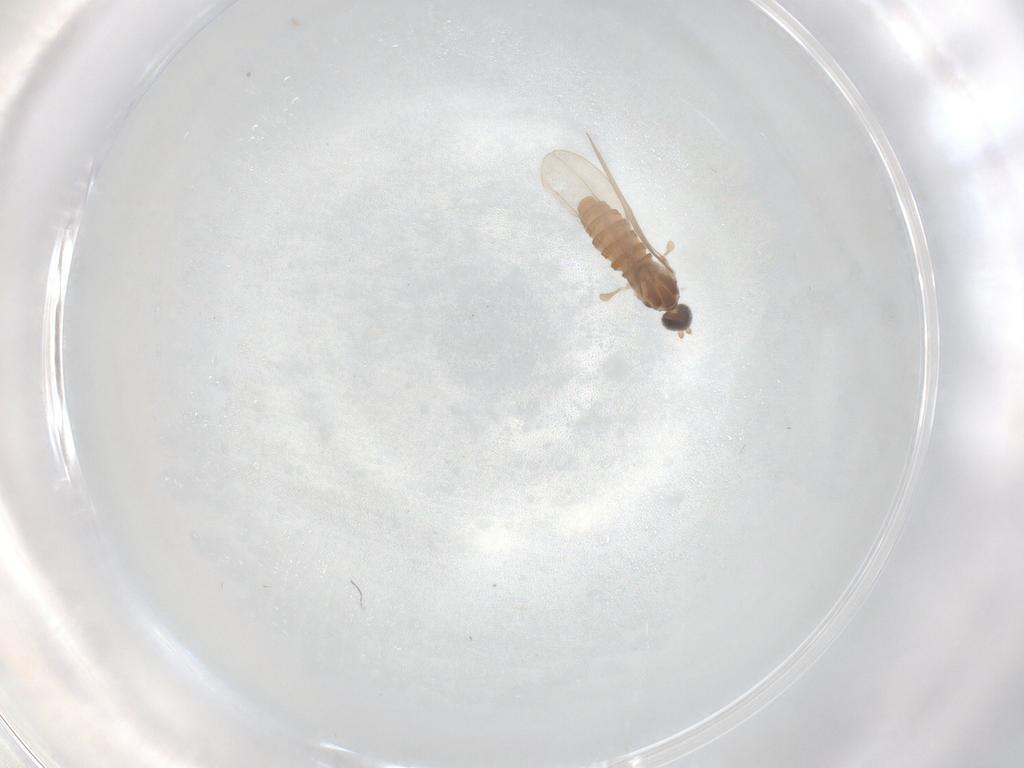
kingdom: Animalia
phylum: Arthropoda
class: Insecta
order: Diptera
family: Cecidomyiidae
